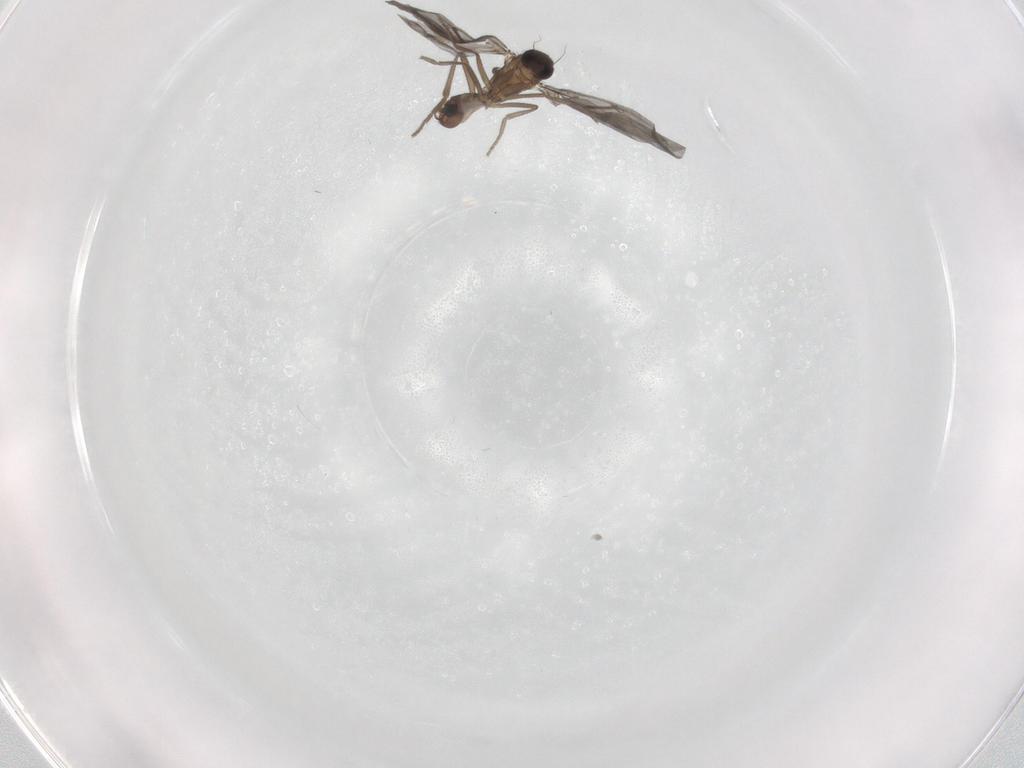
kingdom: Animalia
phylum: Arthropoda
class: Insecta
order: Diptera
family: Phoridae
